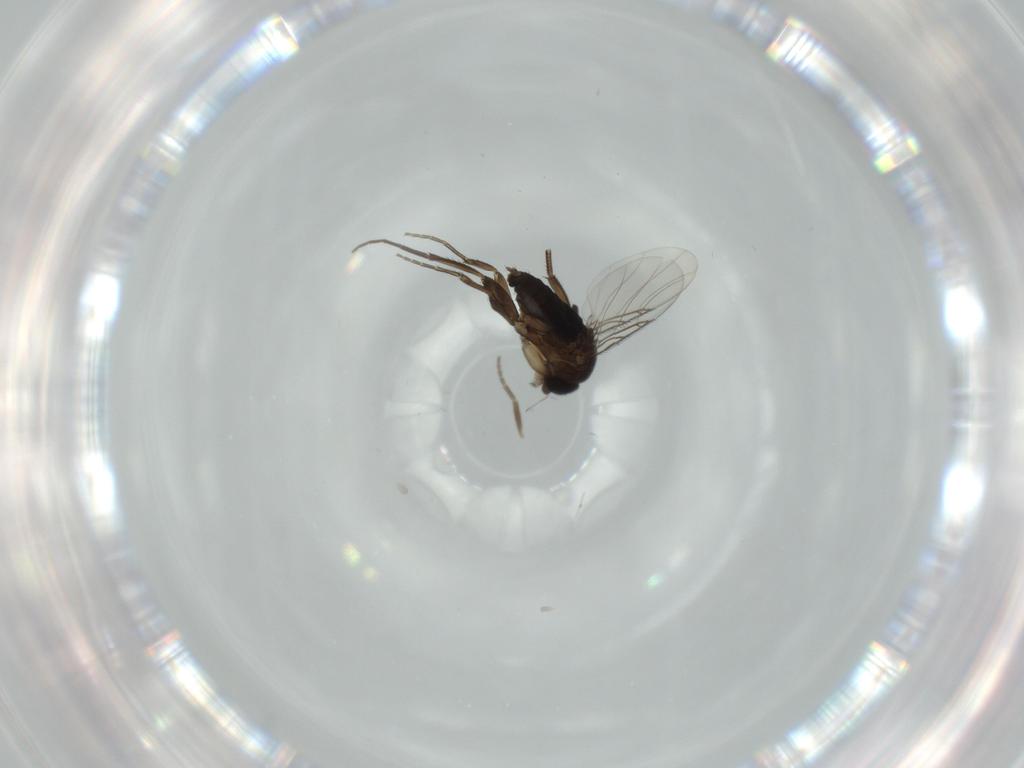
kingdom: Animalia
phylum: Arthropoda
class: Insecta
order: Diptera
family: Phoridae
